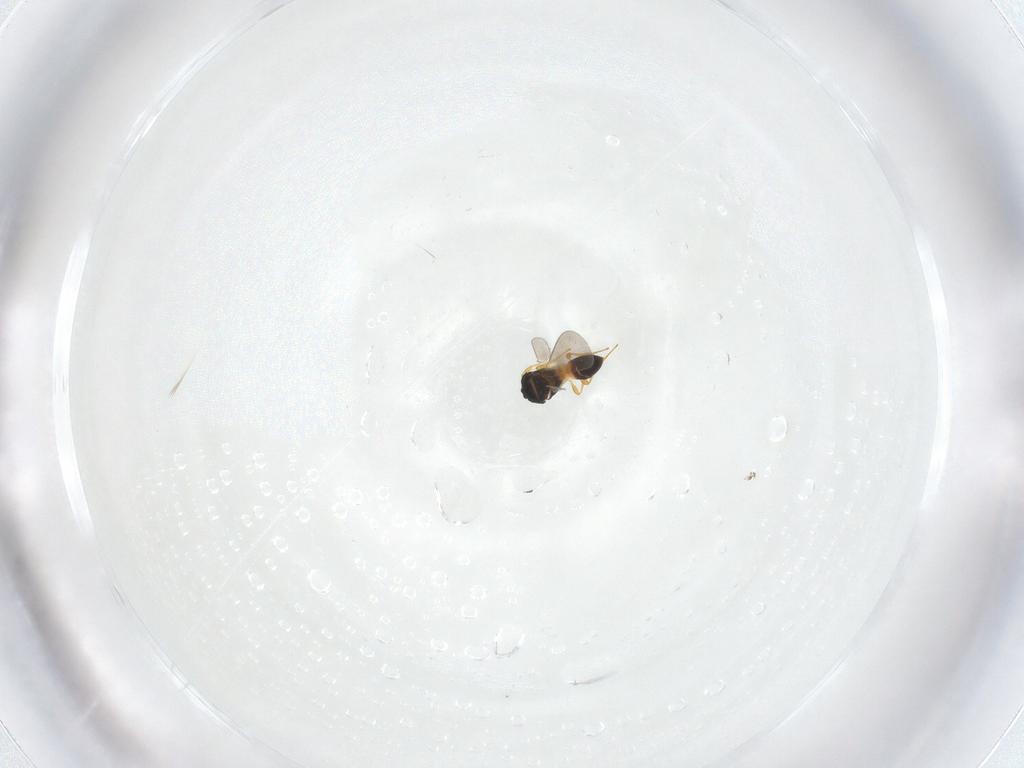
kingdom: Animalia
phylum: Arthropoda
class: Insecta
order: Hymenoptera
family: Platygastridae
